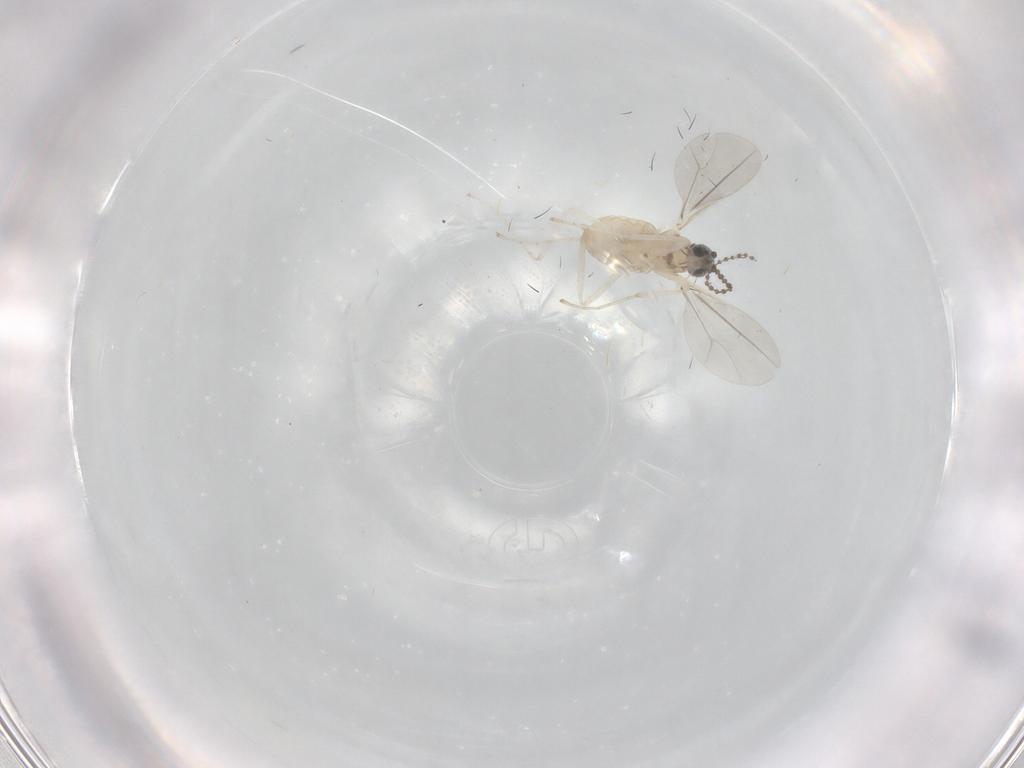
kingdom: Animalia
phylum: Arthropoda
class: Insecta
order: Diptera
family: Sciaridae
